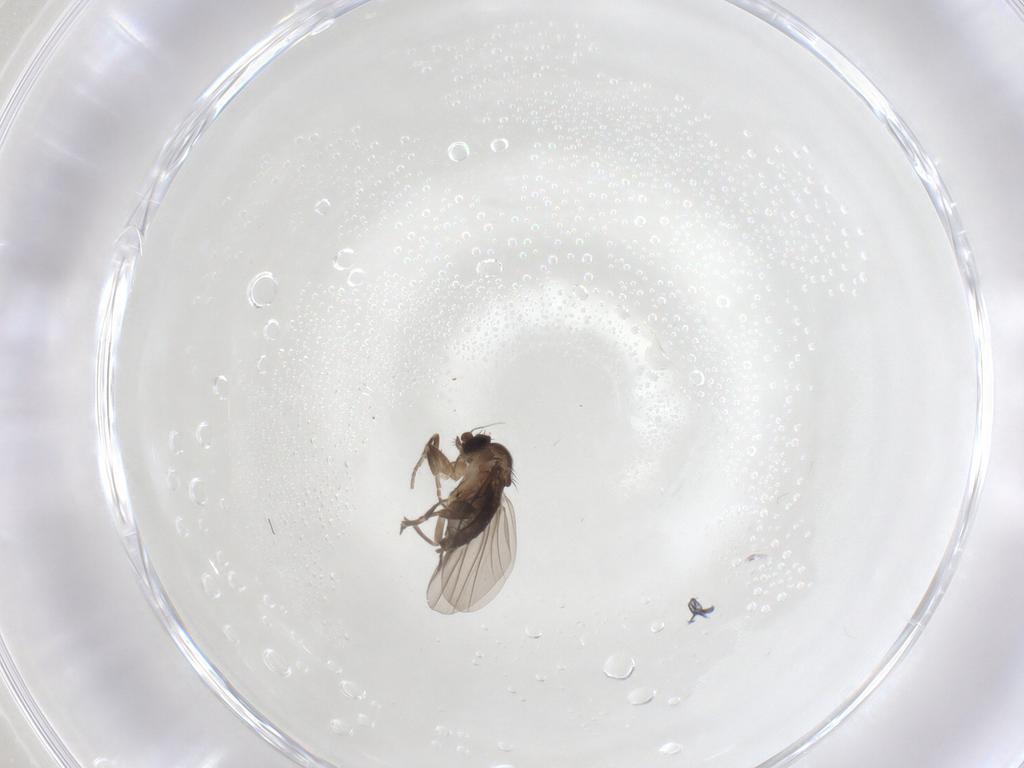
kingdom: Animalia
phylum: Arthropoda
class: Insecta
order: Diptera
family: Phoridae
